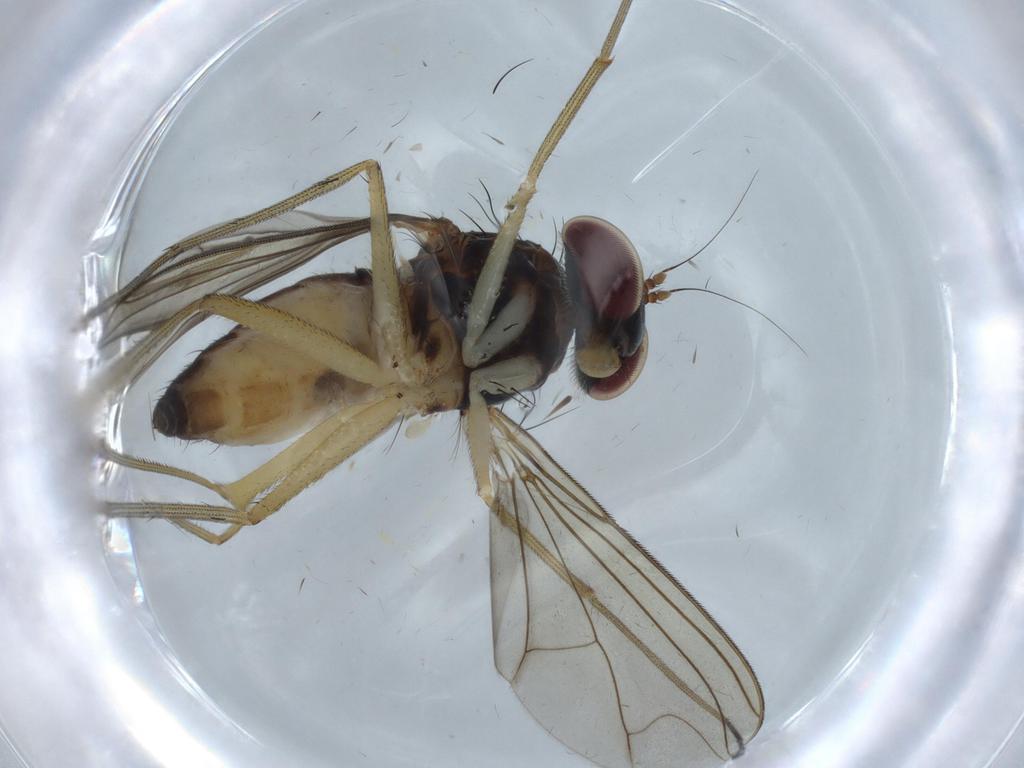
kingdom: Animalia
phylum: Arthropoda
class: Insecta
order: Diptera
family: Dolichopodidae
